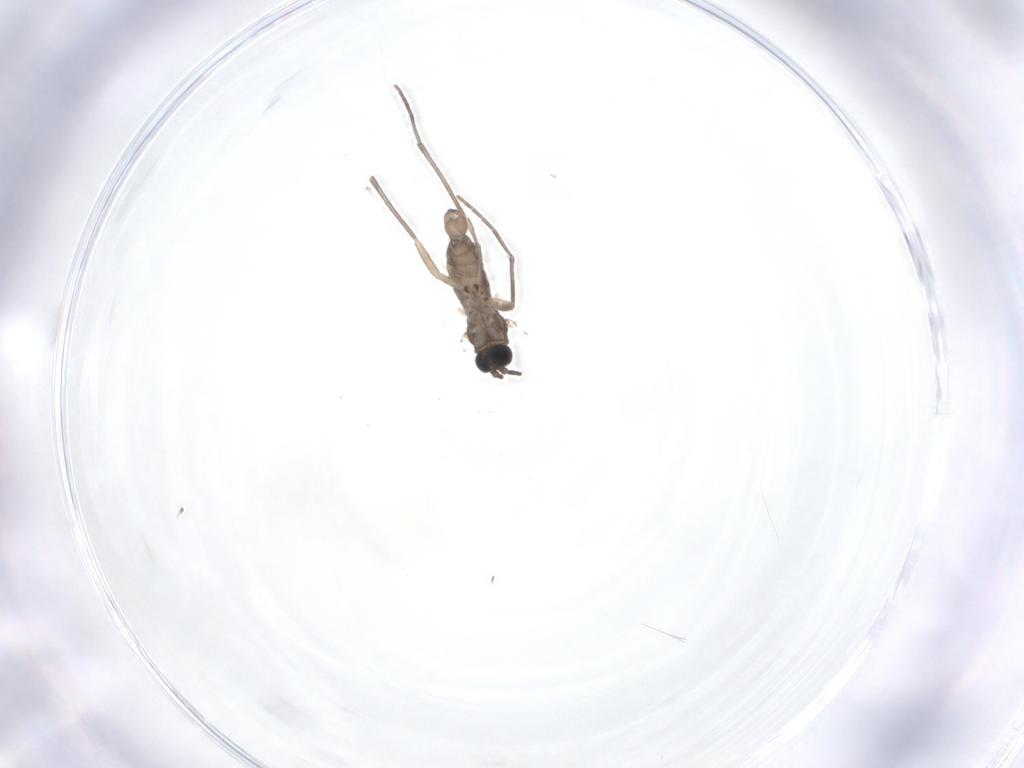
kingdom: Animalia
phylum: Arthropoda
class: Insecta
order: Diptera
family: Sciaridae
